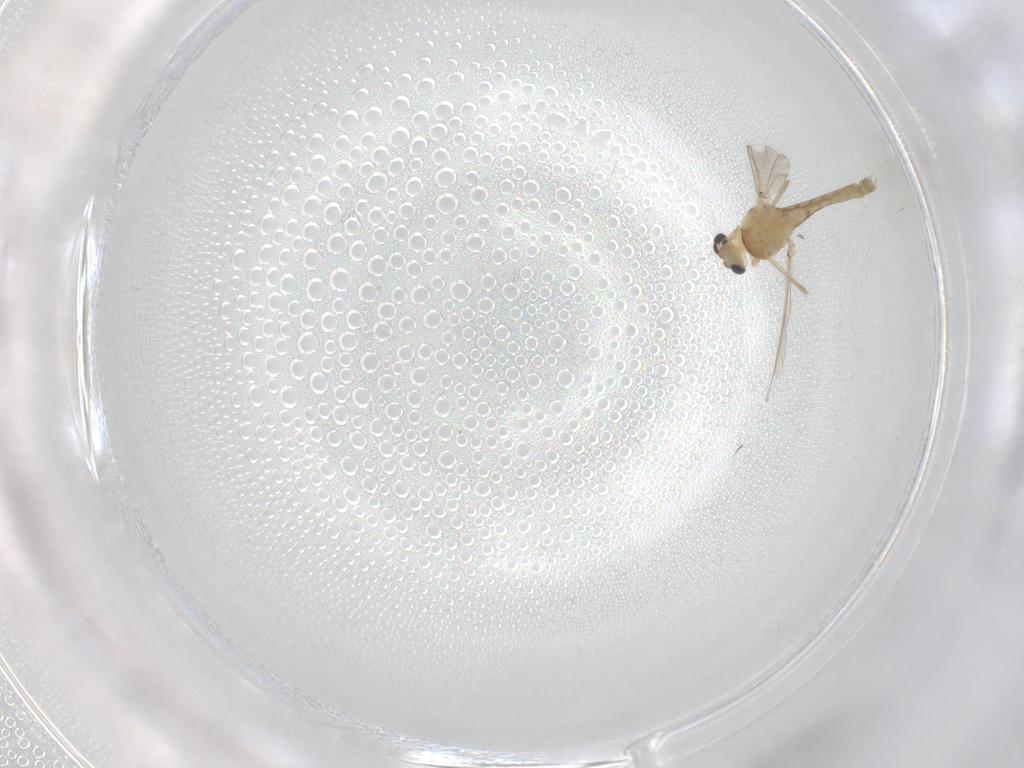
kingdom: Animalia
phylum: Arthropoda
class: Insecta
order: Diptera
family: Chironomidae
